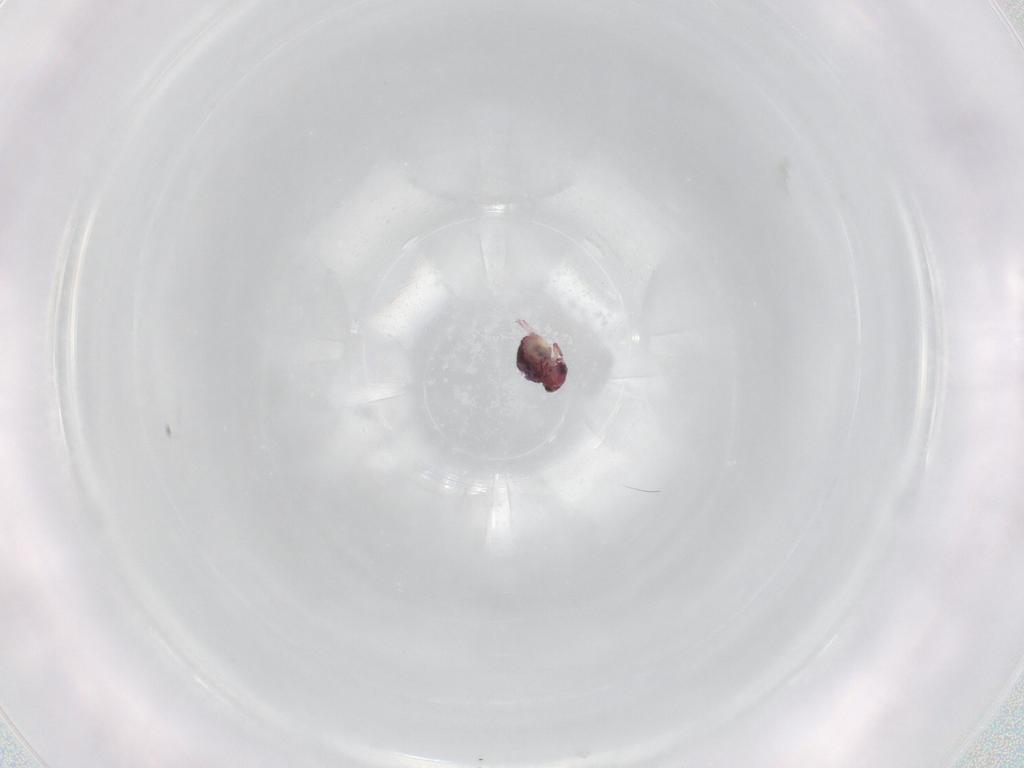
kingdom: Animalia
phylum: Arthropoda
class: Collembola
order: Symphypleona
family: Sminthurididae
